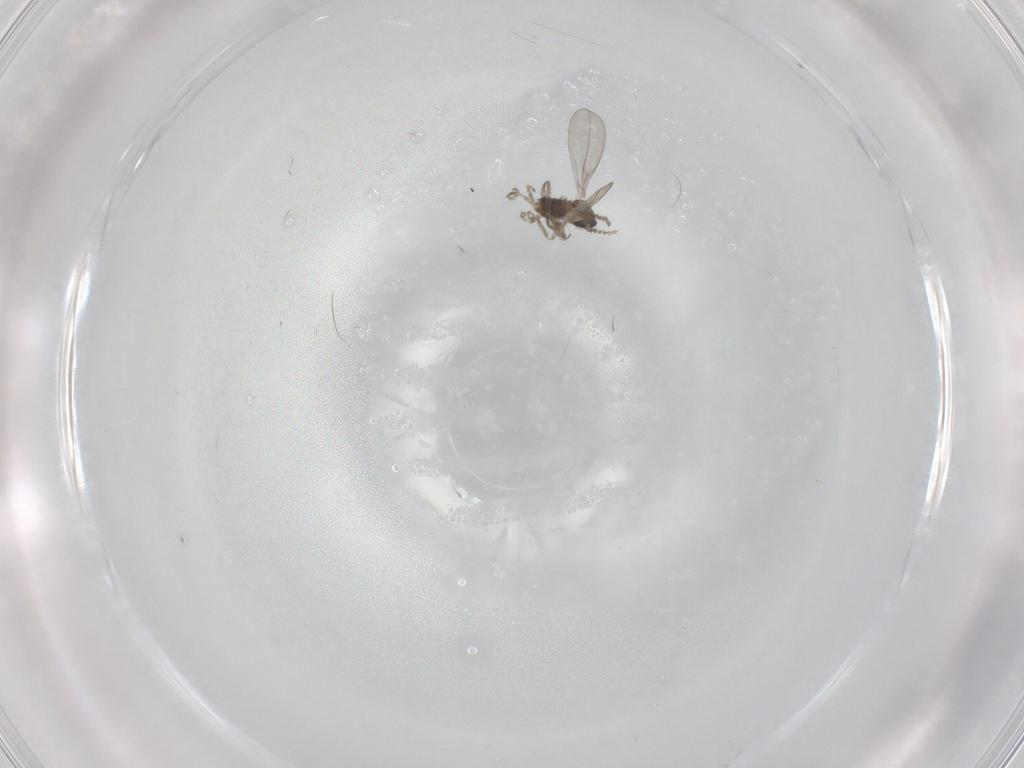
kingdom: Animalia
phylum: Arthropoda
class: Insecta
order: Diptera
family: Cecidomyiidae
